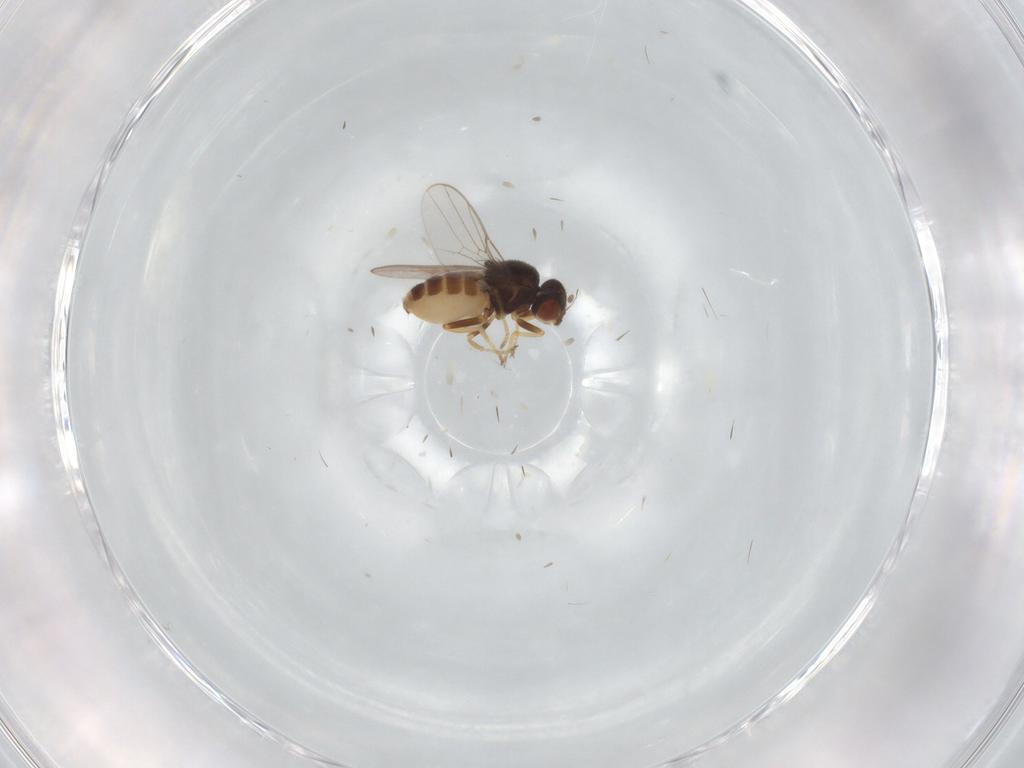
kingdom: Animalia
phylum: Arthropoda
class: Insecta
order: Diptera
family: Chloropidae
